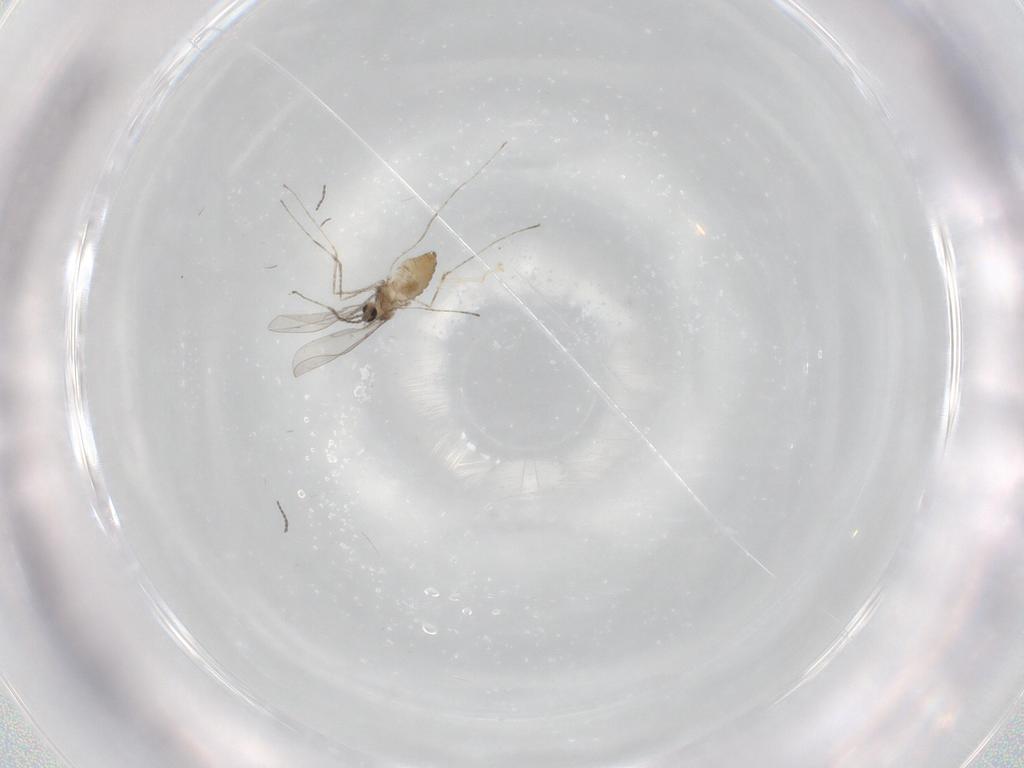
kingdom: Animalia
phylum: Arthropoda
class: Insecta
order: Diptera
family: Cecidomyiidae
